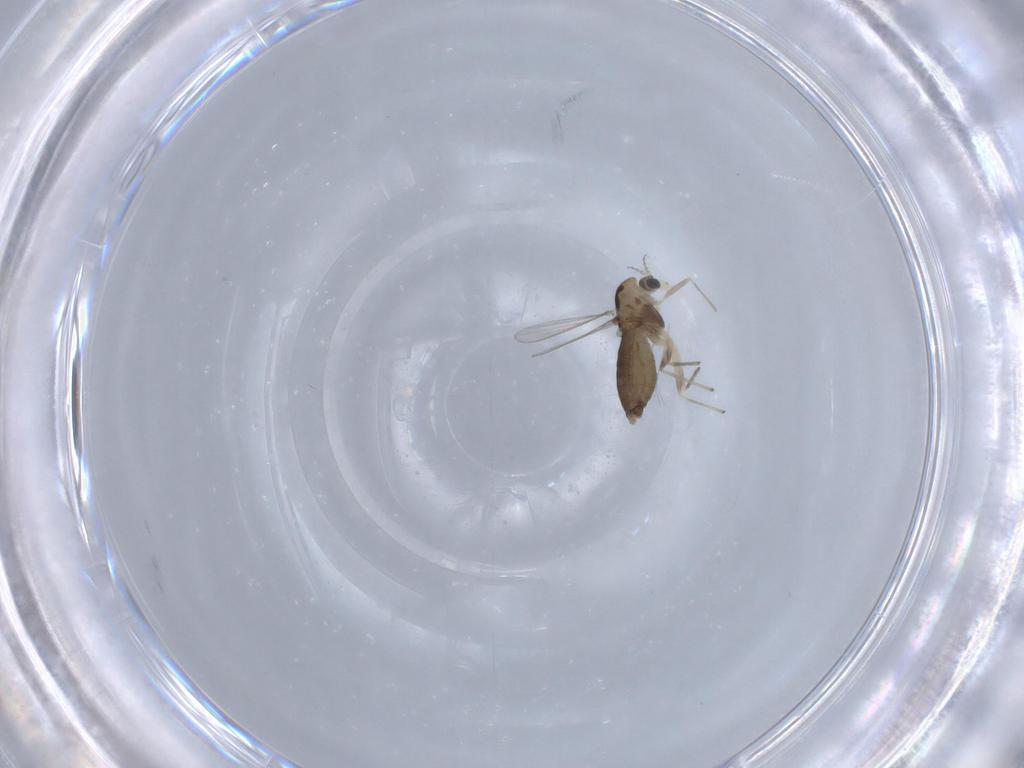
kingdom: Animalia
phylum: Arthropoda
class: Insecta
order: Diptera
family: Chironomidae
